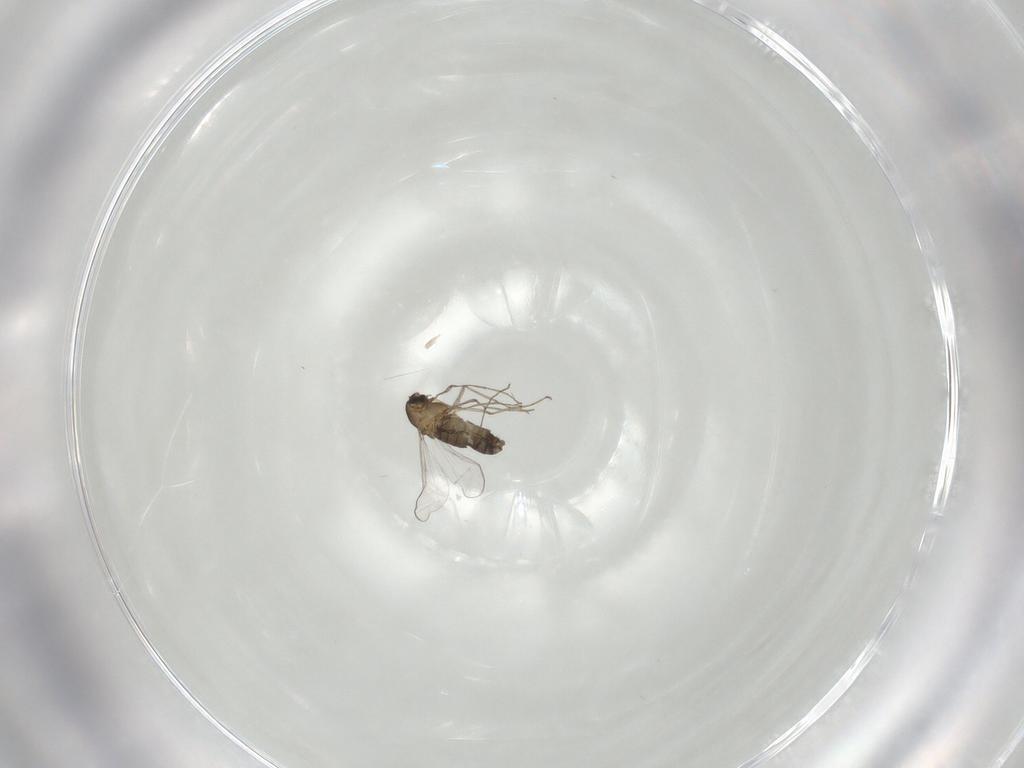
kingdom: Animalia
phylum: Arthropoda
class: Insecta
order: Diptera
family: Chironomidae
